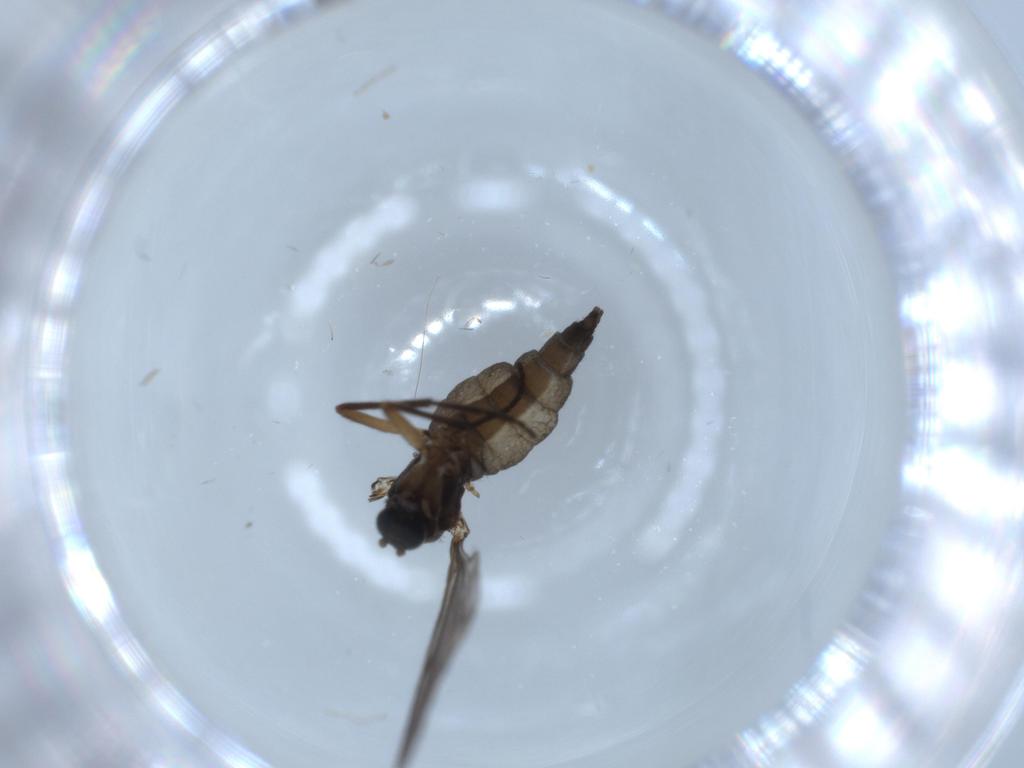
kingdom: Animalia
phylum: Arthropoda
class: Insecta
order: Diptera
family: Sciaridae
